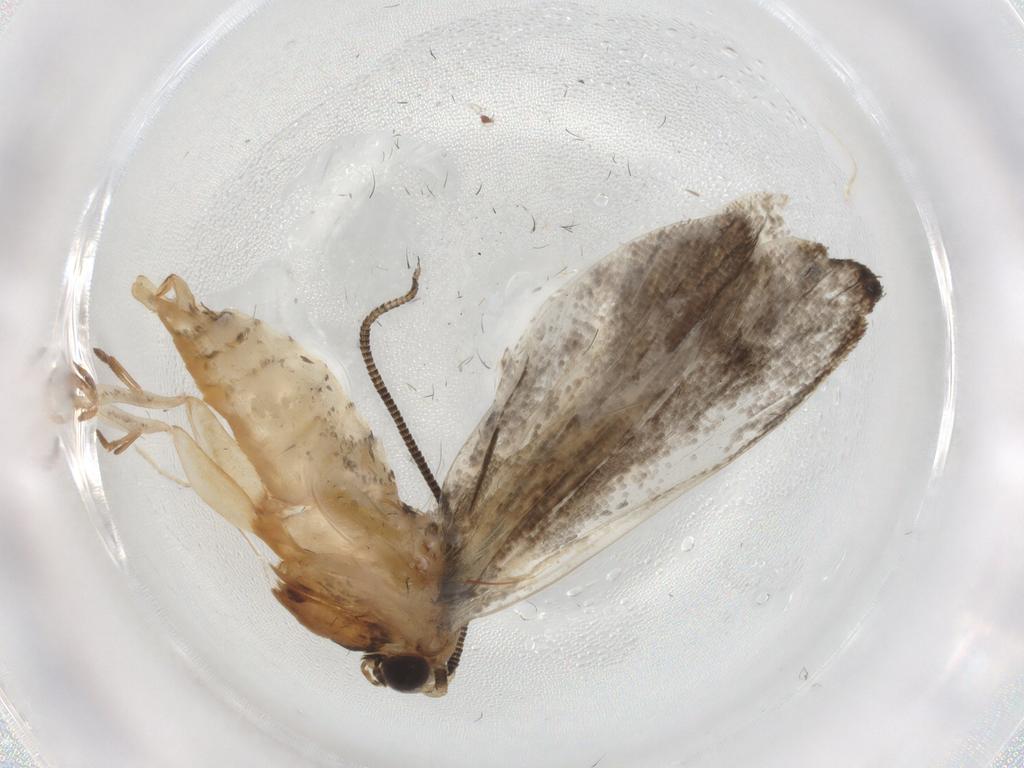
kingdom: Animalia
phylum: Arthropoda
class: Insecta
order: Lepidoptera
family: Tineidae
